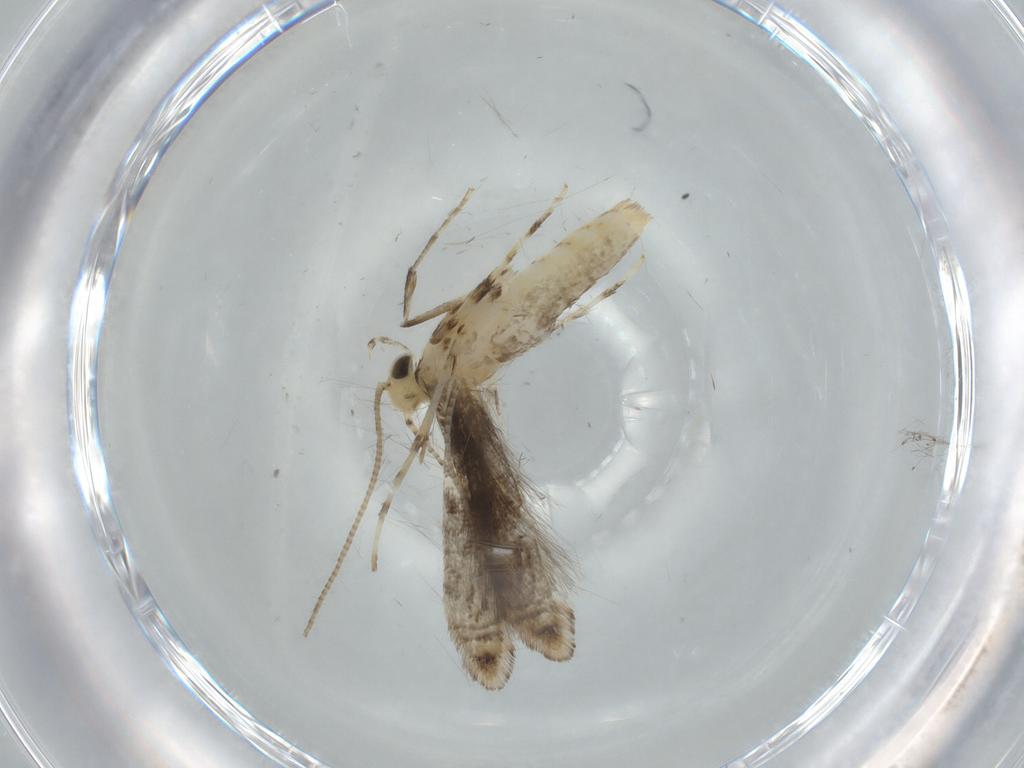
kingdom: Animalia
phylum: Arthropoda
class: Insecta
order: Lepidoptera
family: Gracillariidae
